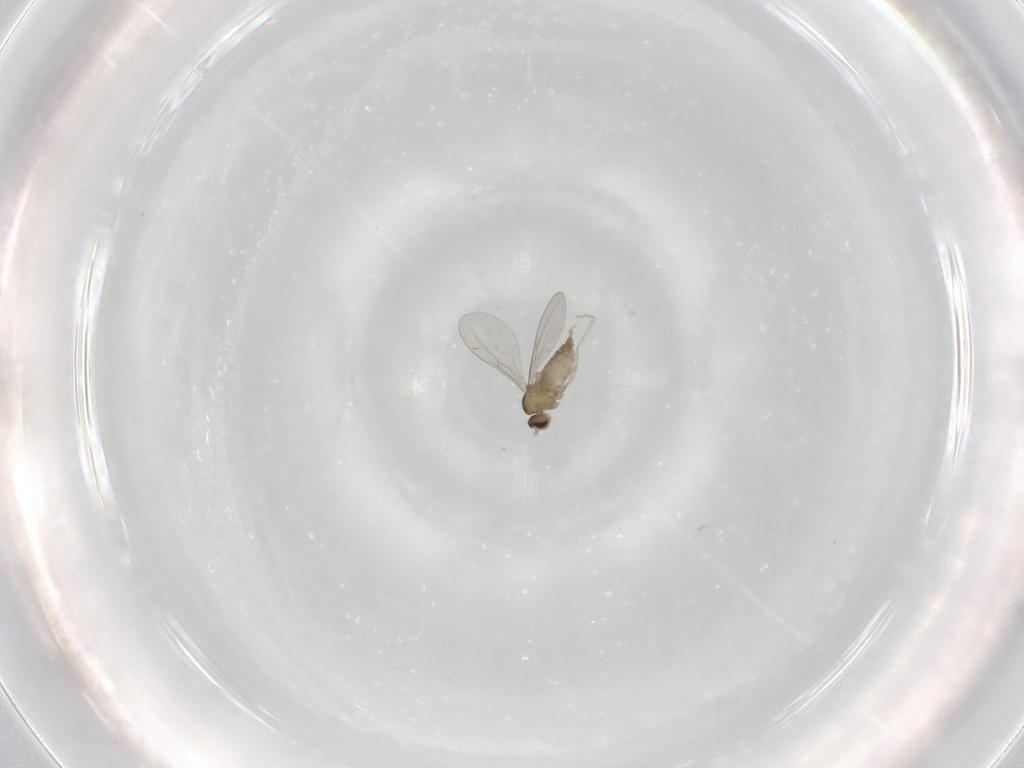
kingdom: Animalia
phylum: Arthropoda
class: Insecta
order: Diptera
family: Cecidomyiidae
